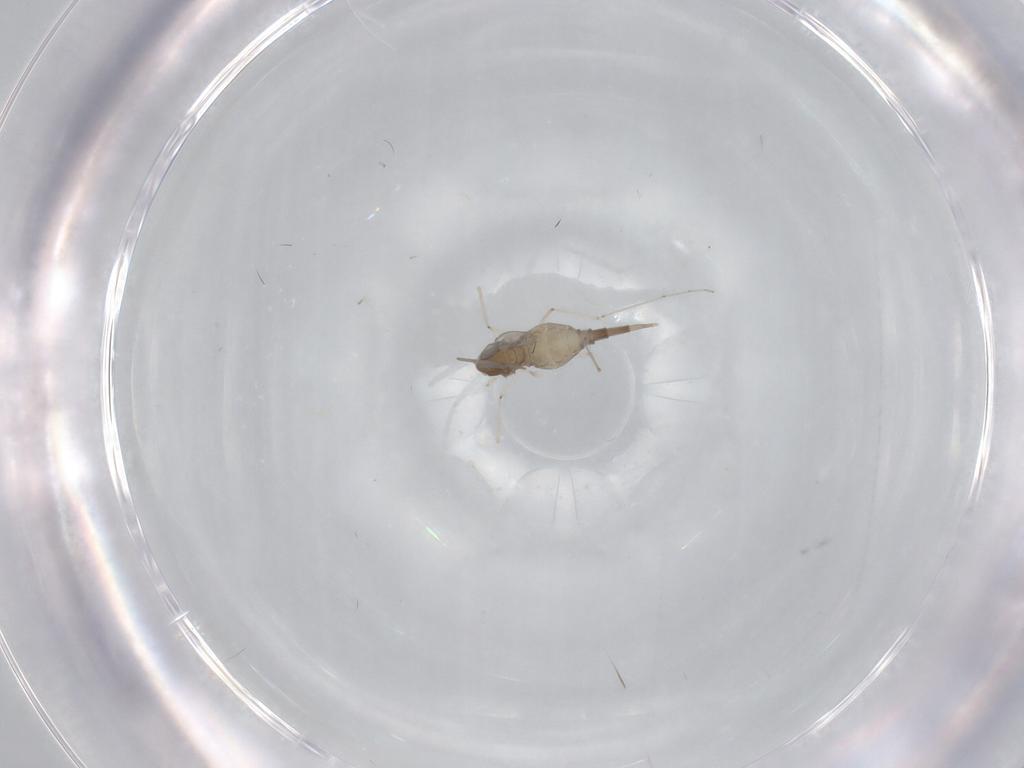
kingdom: Animalia
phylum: Arthropoda
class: Insecta
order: Diptera
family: Cecidomyiidae
